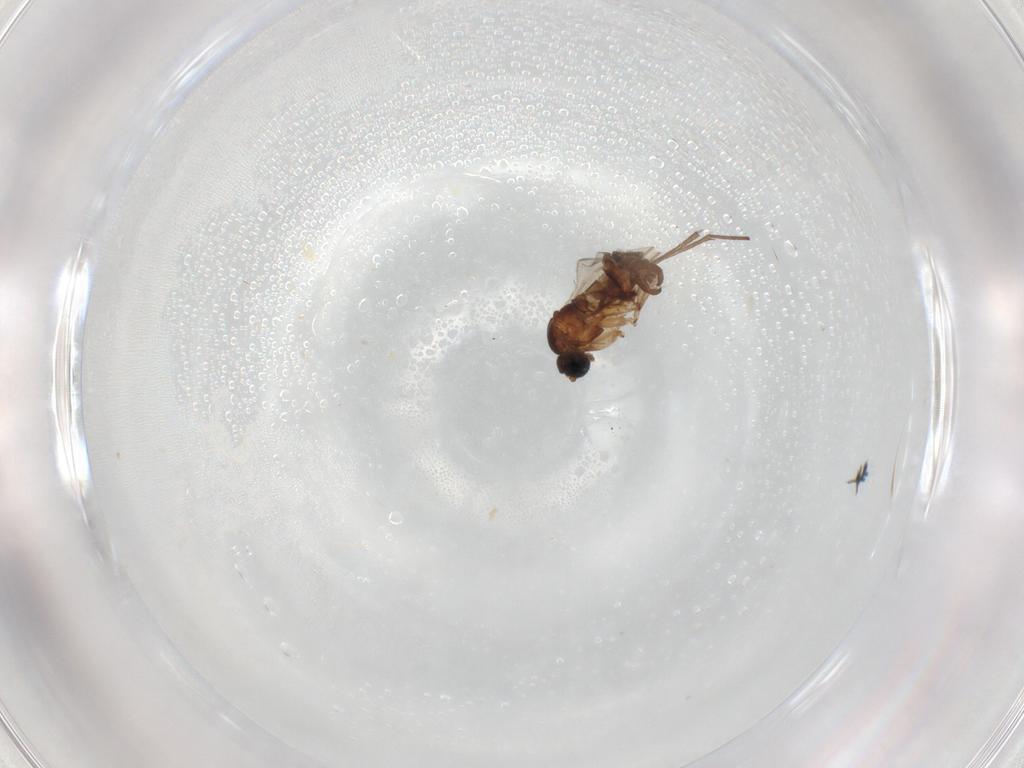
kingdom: Animalia
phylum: Arthropoda
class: Insecta
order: Diptera
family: Sciaridae
